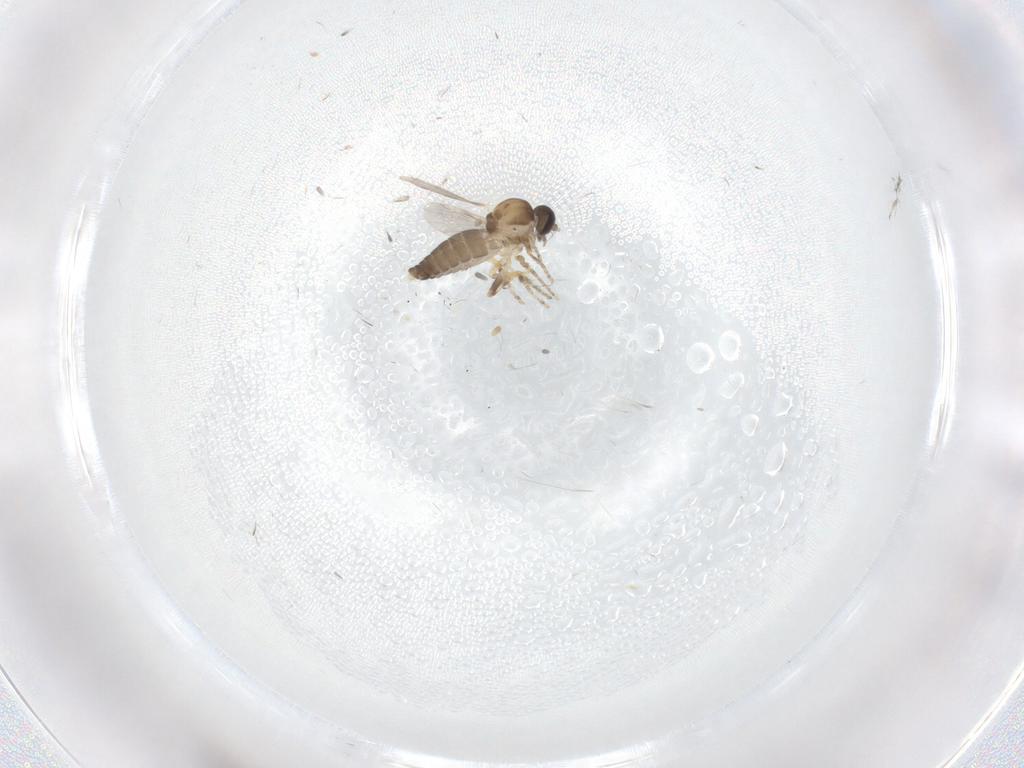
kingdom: Animalia
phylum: Arthropoda
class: Insecta
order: Diptera
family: Ceratopogonidae
